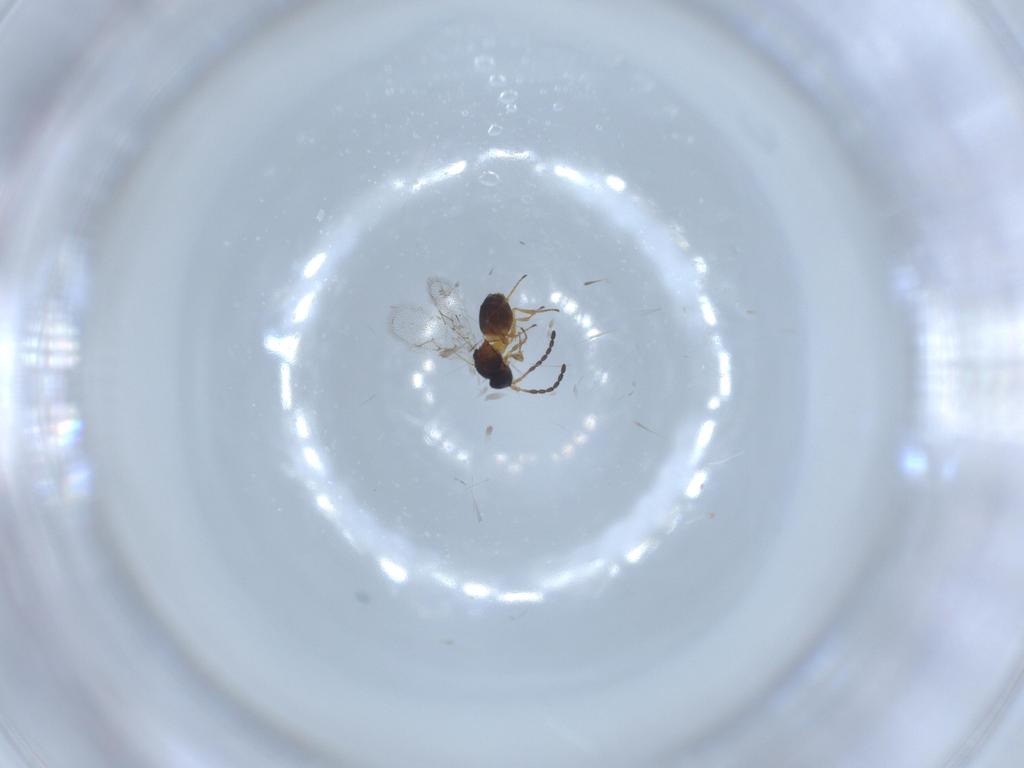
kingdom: Animalia
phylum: Arthropoda
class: Insecta
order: Hymenoptera
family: Figitidae
